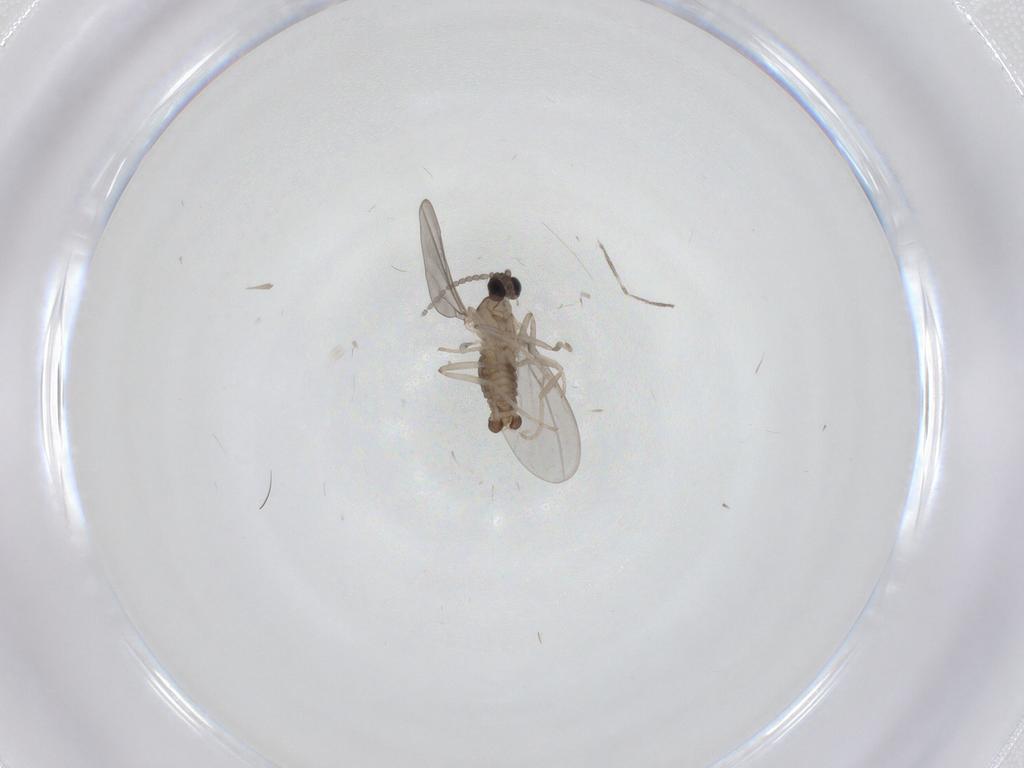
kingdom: Animalia
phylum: Arthropoda
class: Insecta
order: Diptera
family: Cecidomyiidae
